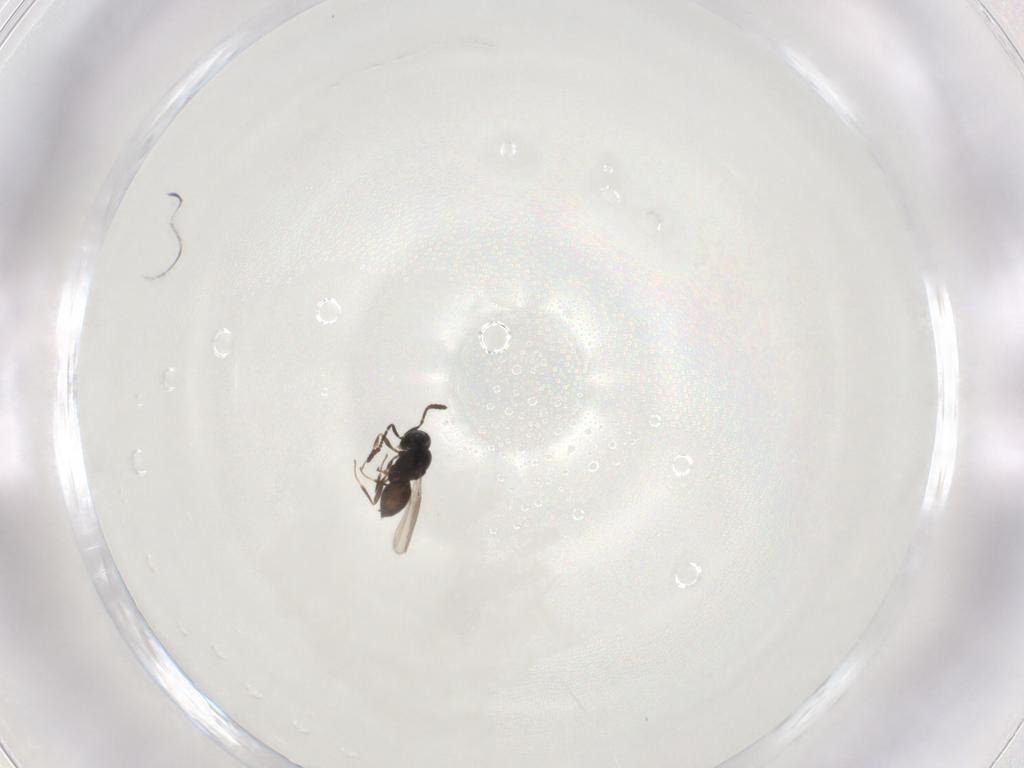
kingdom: Animalia
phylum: Arthropoda
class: Insecta
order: Hymenoptera
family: Scelionidae
